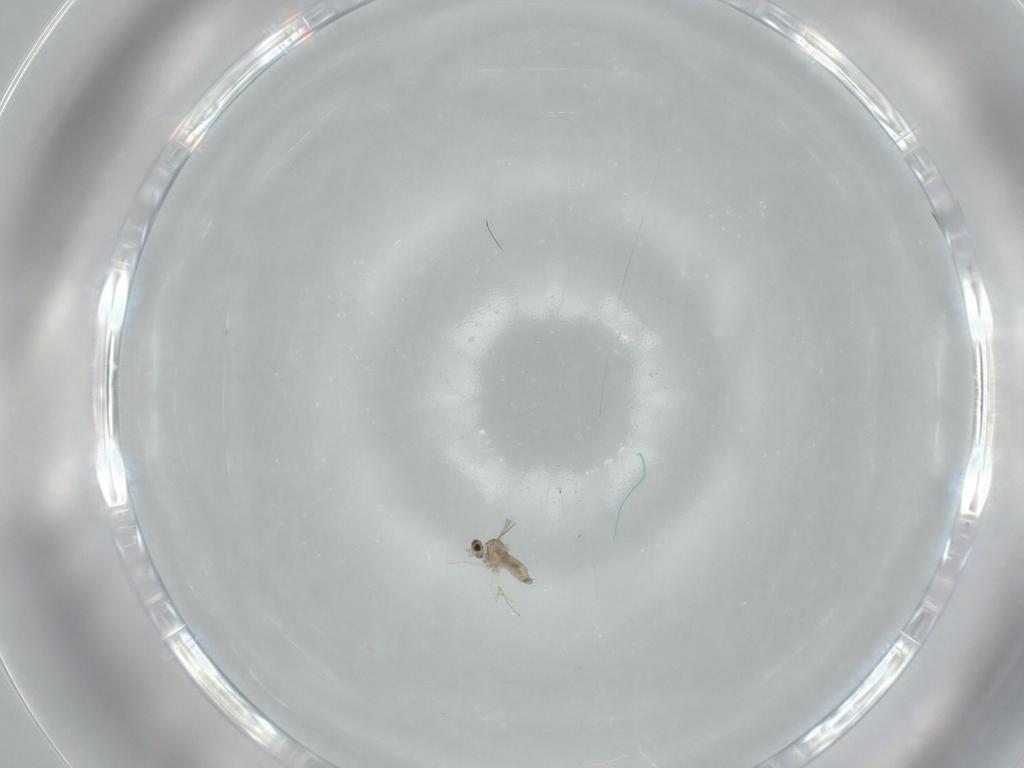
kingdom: Animalia
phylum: Arthropoda
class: Insecta
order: Diptera
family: Cecidomyiidae
